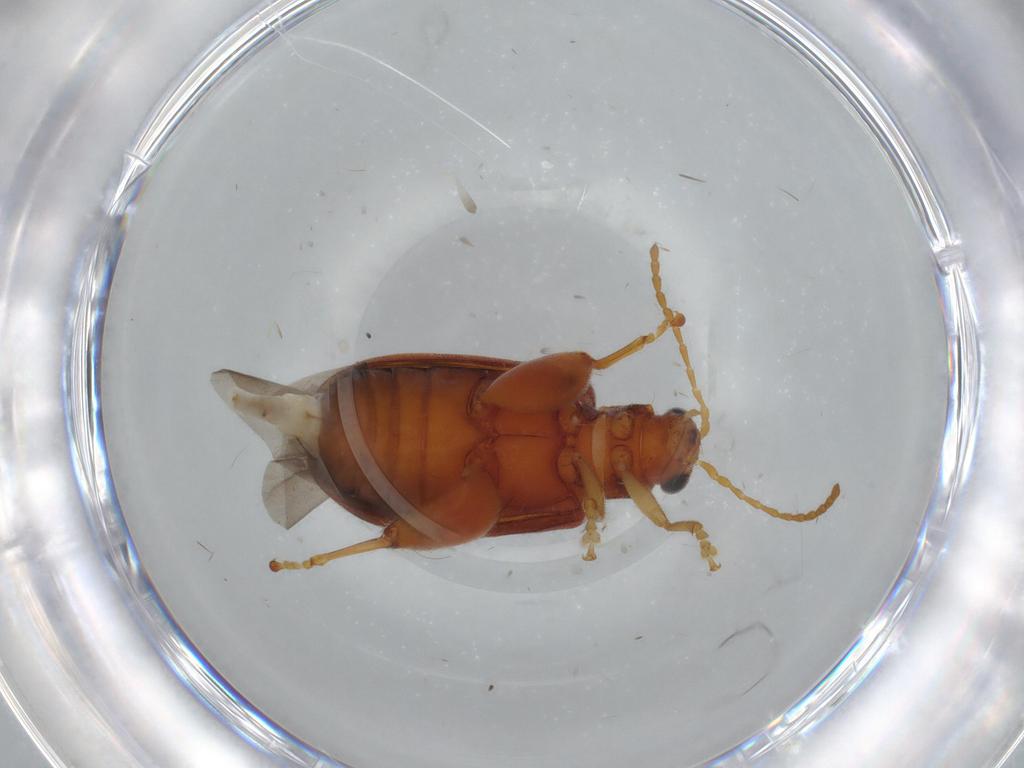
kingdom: Animalia
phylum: Arthropoda
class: Insecta
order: Coleoptera
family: Chrysomelidae
